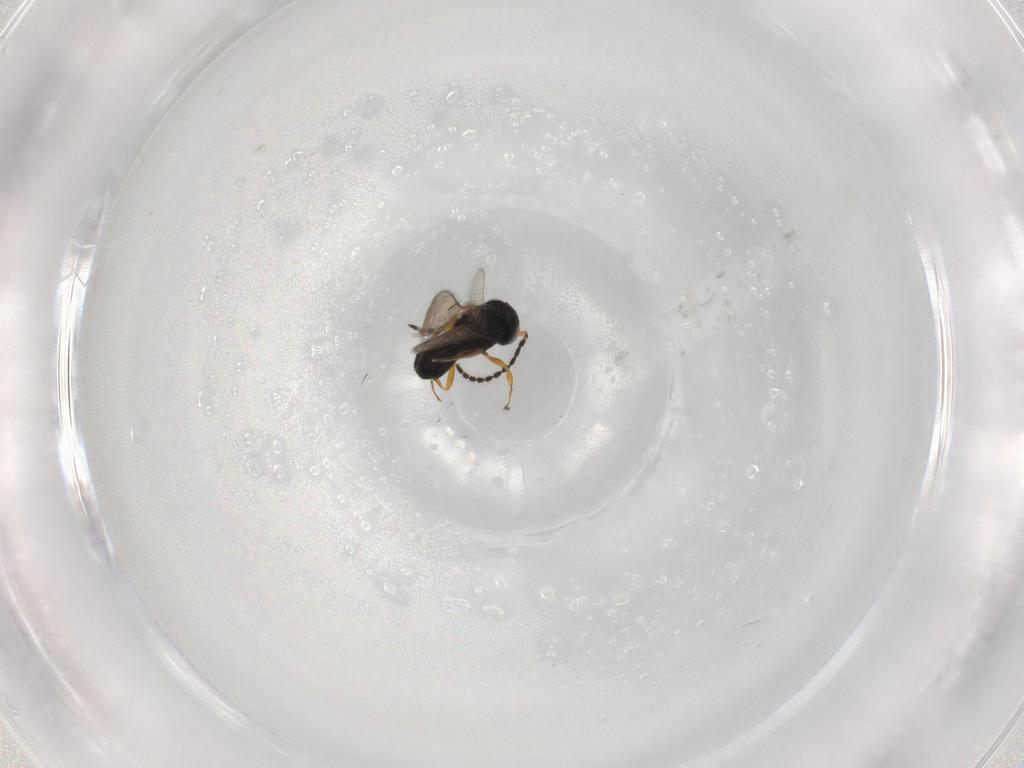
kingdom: Animalia
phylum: Arthropoda
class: Insecta
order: Hymenoptera
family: Scelionidae
